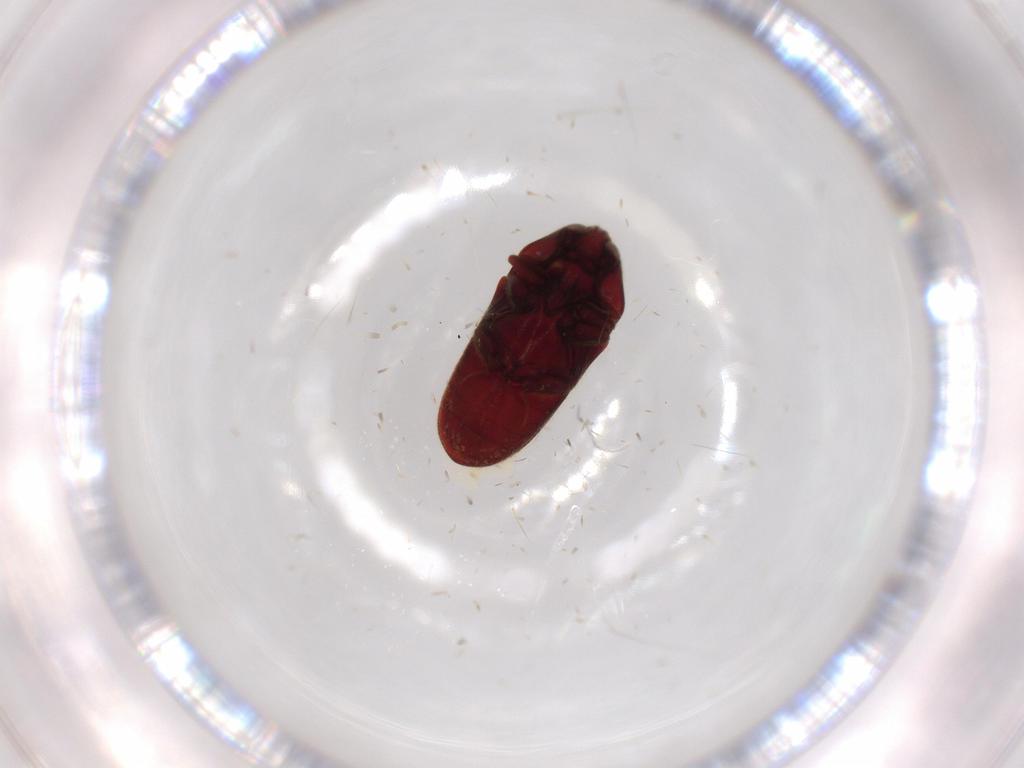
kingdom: Animalia
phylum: Arthropoda
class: Insecta
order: Coleoptera
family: Throscidae
